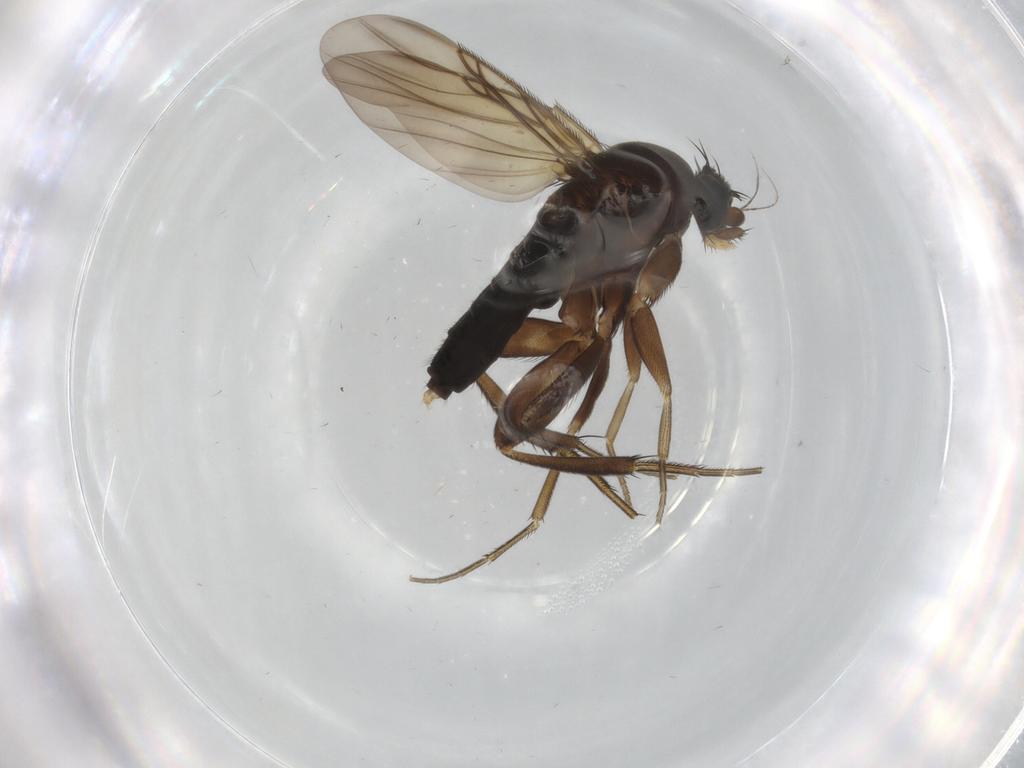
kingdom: Animalia
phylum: Arthropoda
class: Insecta
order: Diptera
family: Phoridae
